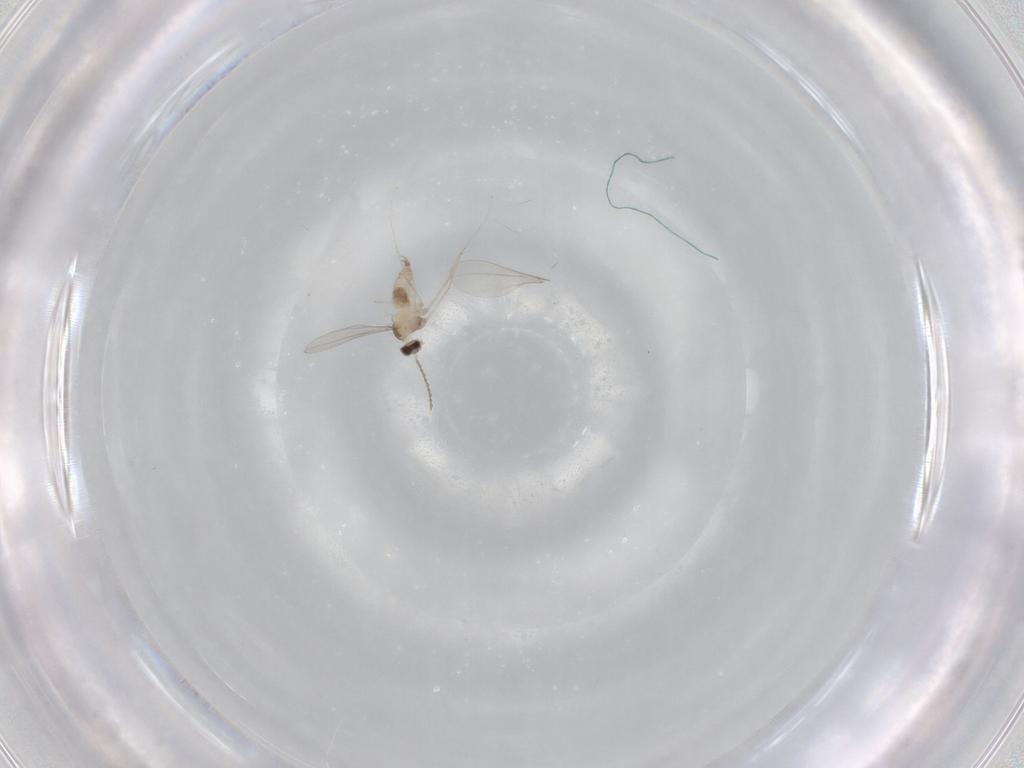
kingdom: Animalia
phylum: Arthropoda
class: Insecta
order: Diptera
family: Cecidomyiidae
